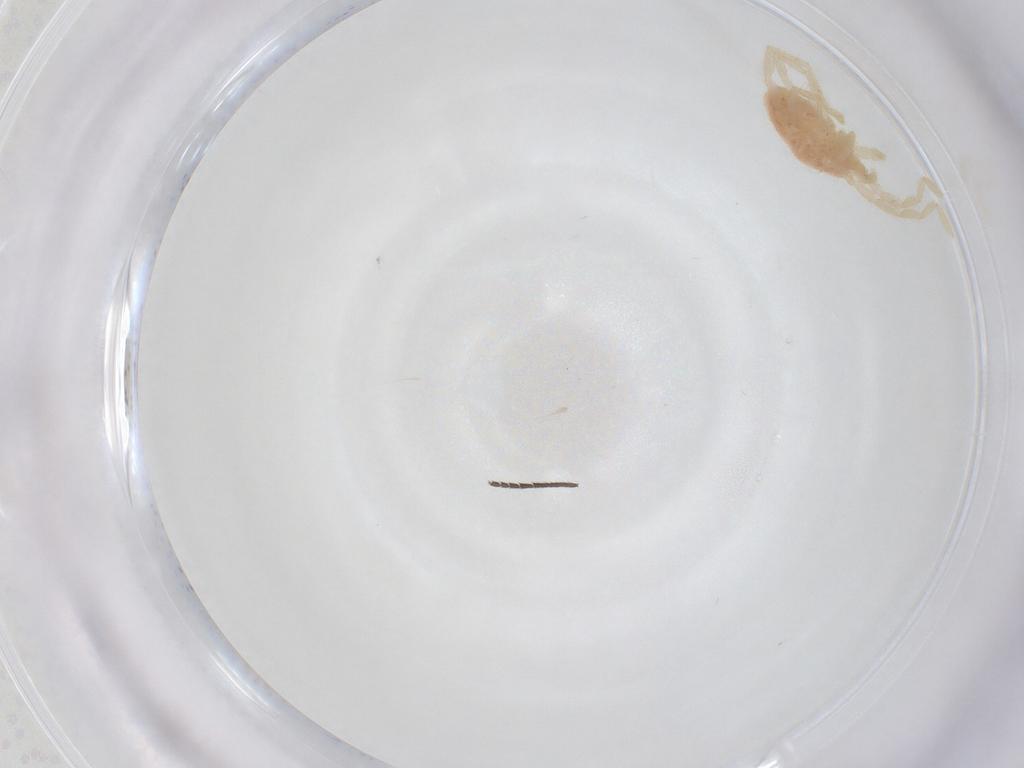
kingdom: Animalia
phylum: Arthropoda
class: Insecta
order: Diptera
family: Sciaridae
